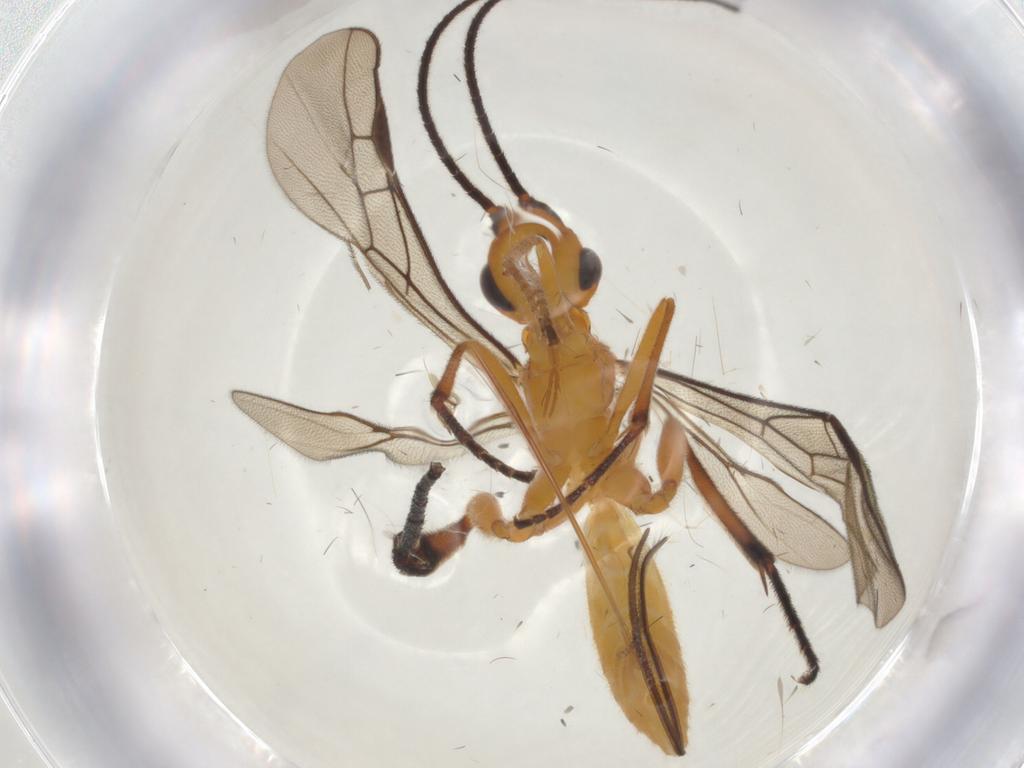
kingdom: Animalia
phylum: Arthropoda
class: Insecta
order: Hymenoptera
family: Braconidae
